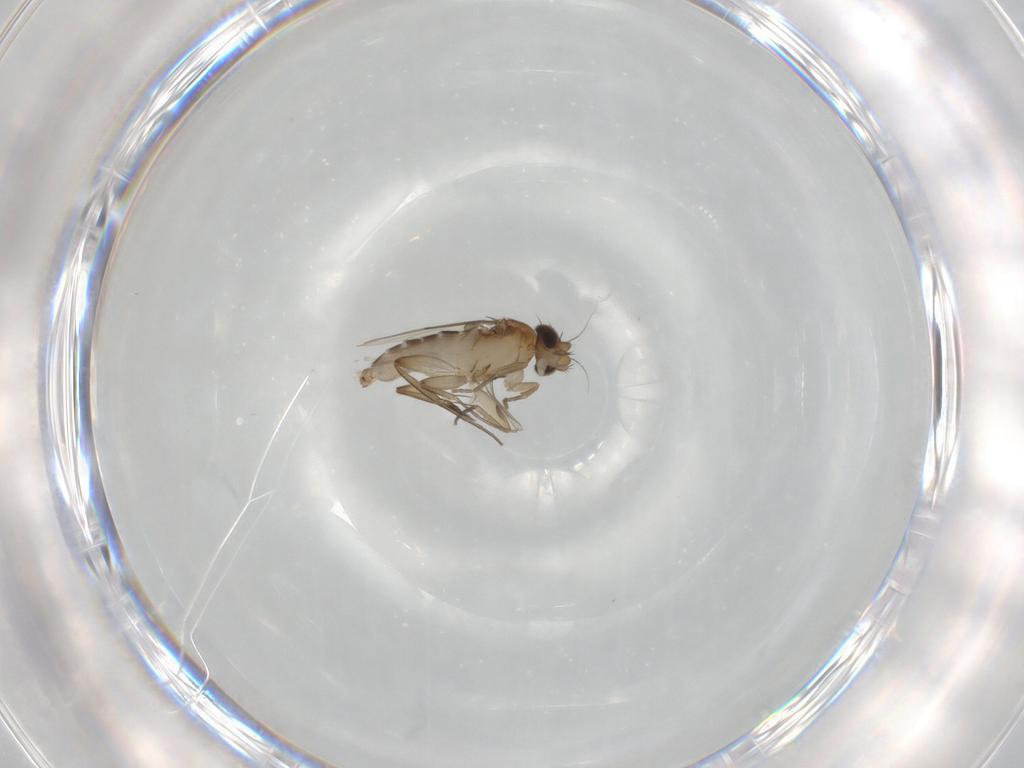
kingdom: Animalia
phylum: Arthropoda
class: Insecta
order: Diptera
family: Phoridae
